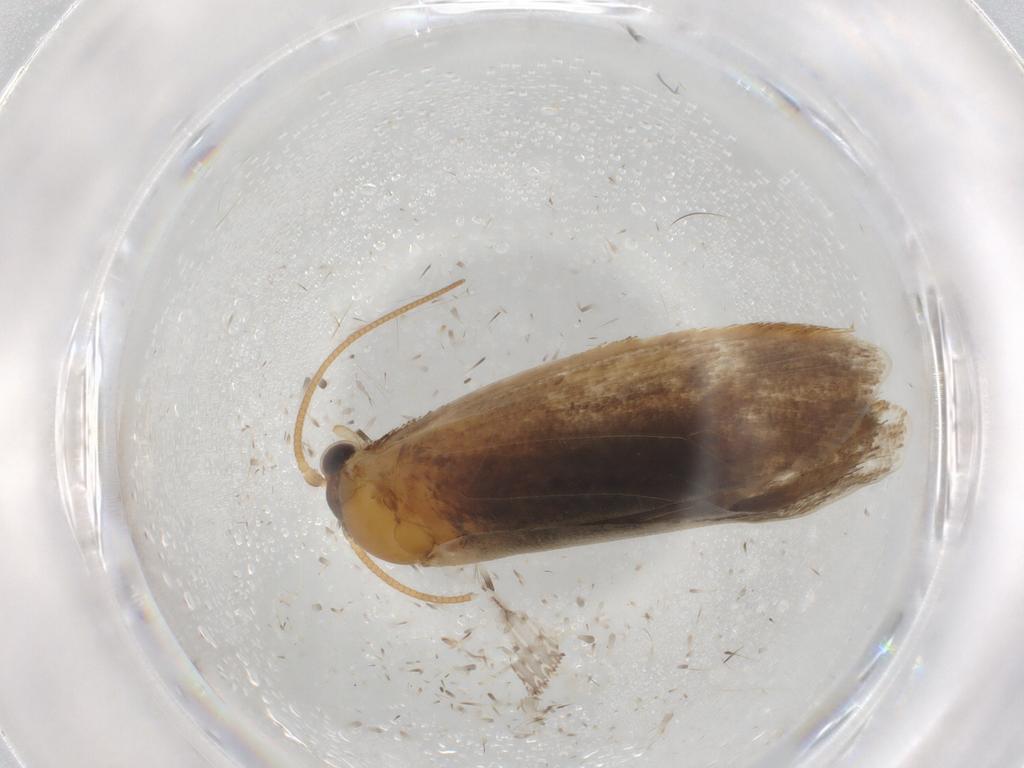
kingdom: Animalia
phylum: Arthropoda
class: Insecta
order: Lepidoptera
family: Nepticulidae
